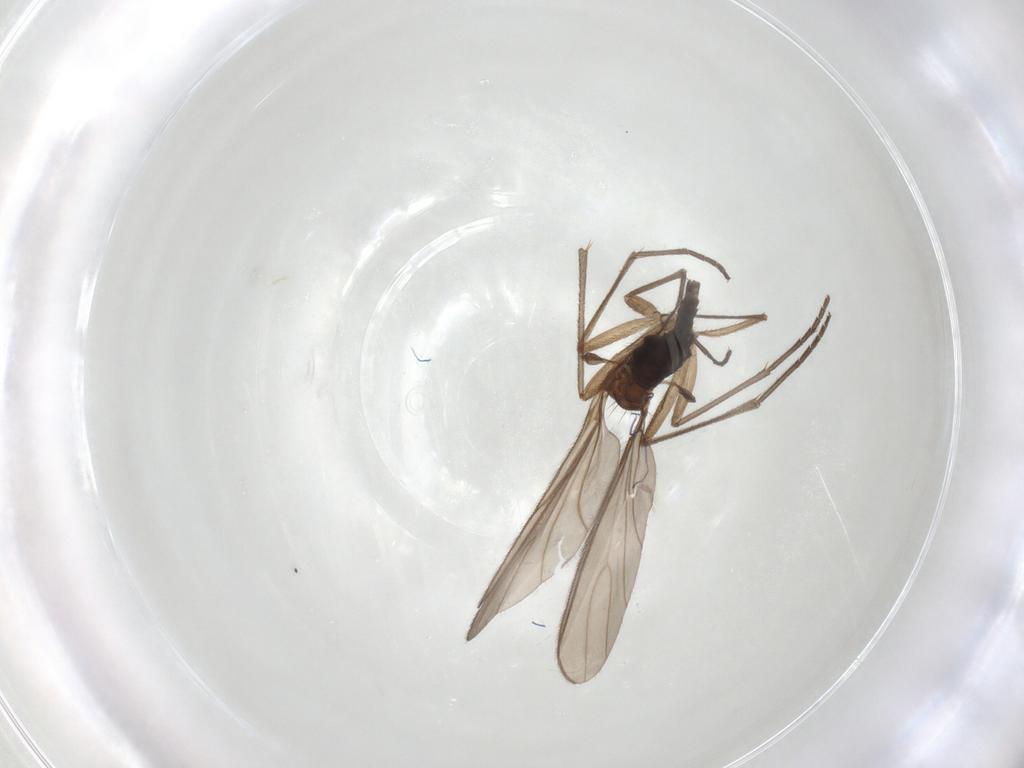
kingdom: Animalia
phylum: Arthropoda
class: Insecta
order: Diptera
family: Sciaridae
